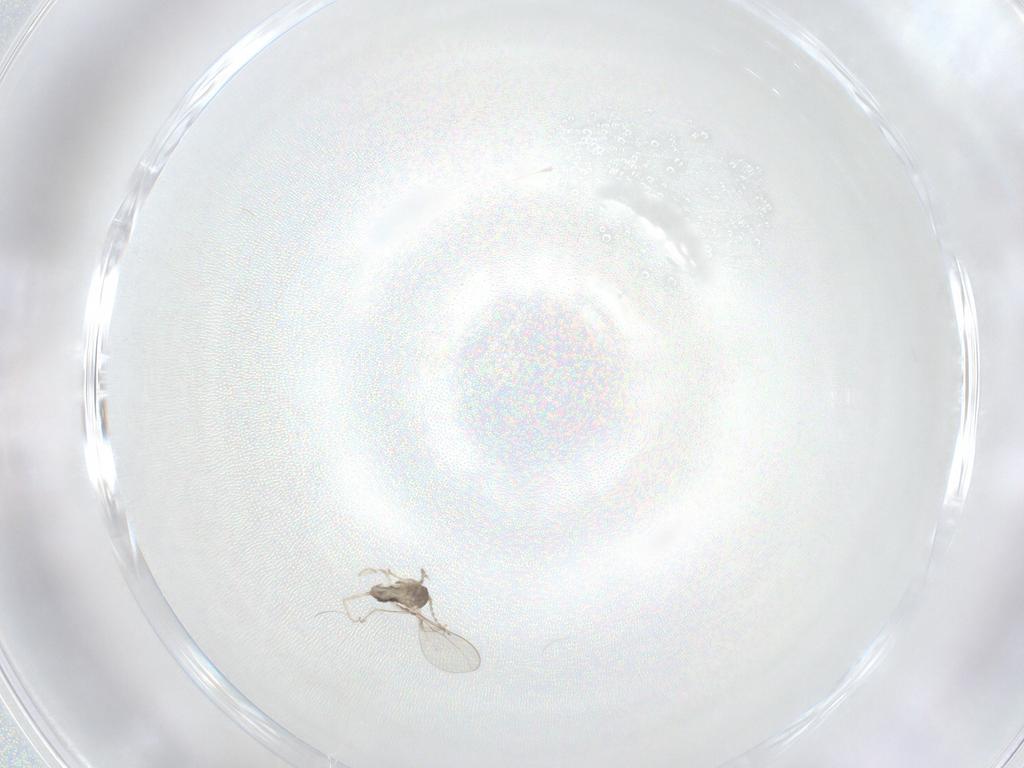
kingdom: Animalia
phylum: Arthropoda
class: Insecta
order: Diptera
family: Cecidomyiidae
